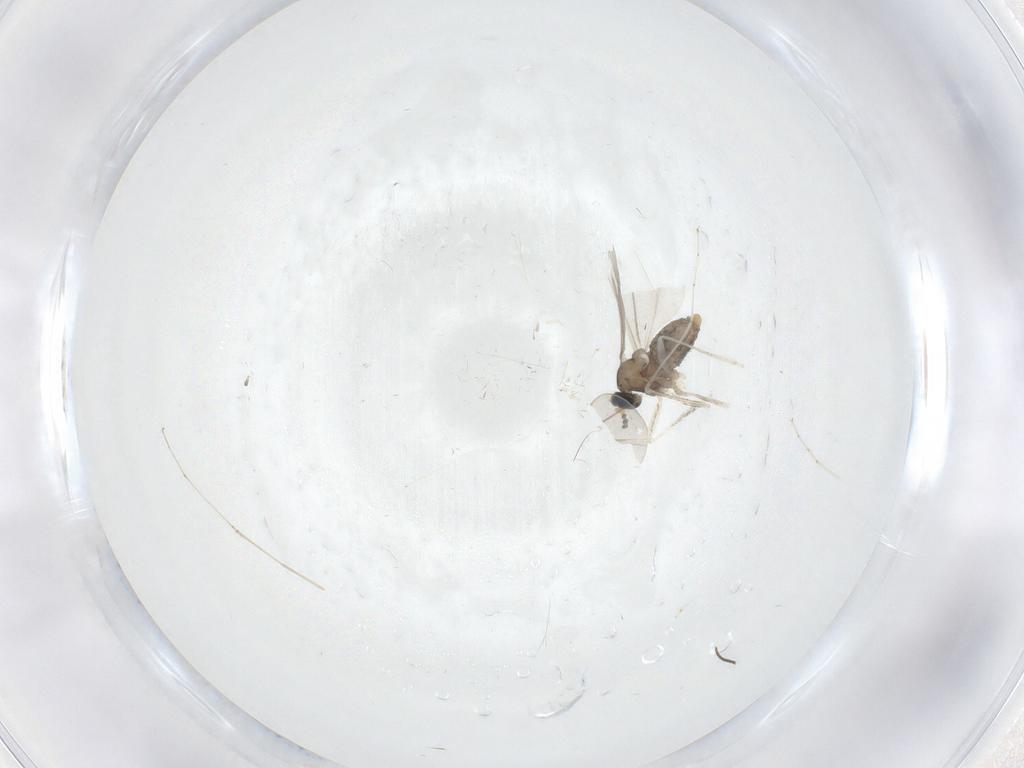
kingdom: Animalia
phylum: Arthropoda
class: Insecta
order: Diptera
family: Cecidomyiidae
